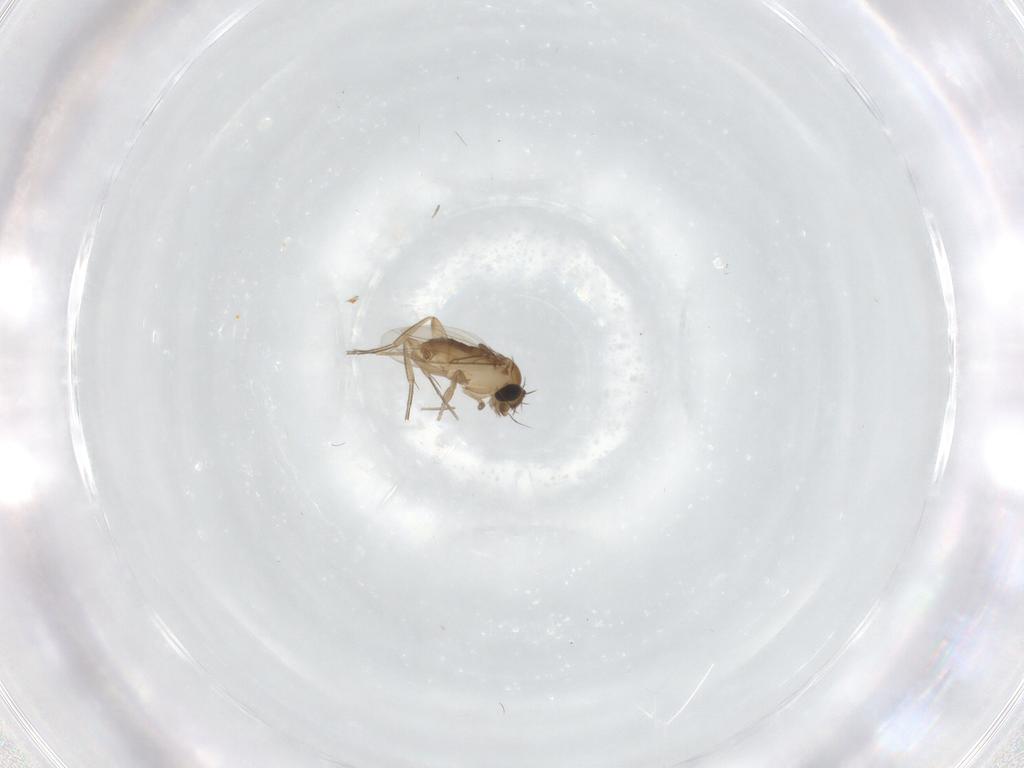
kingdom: Animalia
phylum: Arthropoda
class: Insecta
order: Diptera
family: Phoridae
